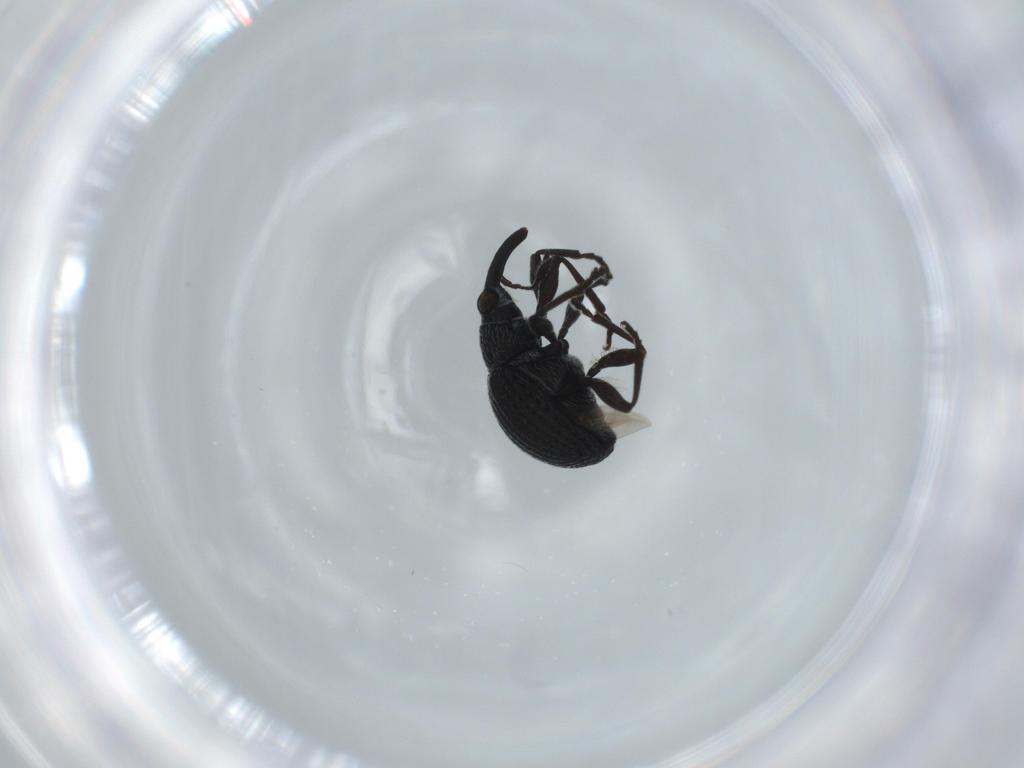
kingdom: Animalia
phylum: Arthropoda
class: Insecta
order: Coleoptera
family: Brentidae
